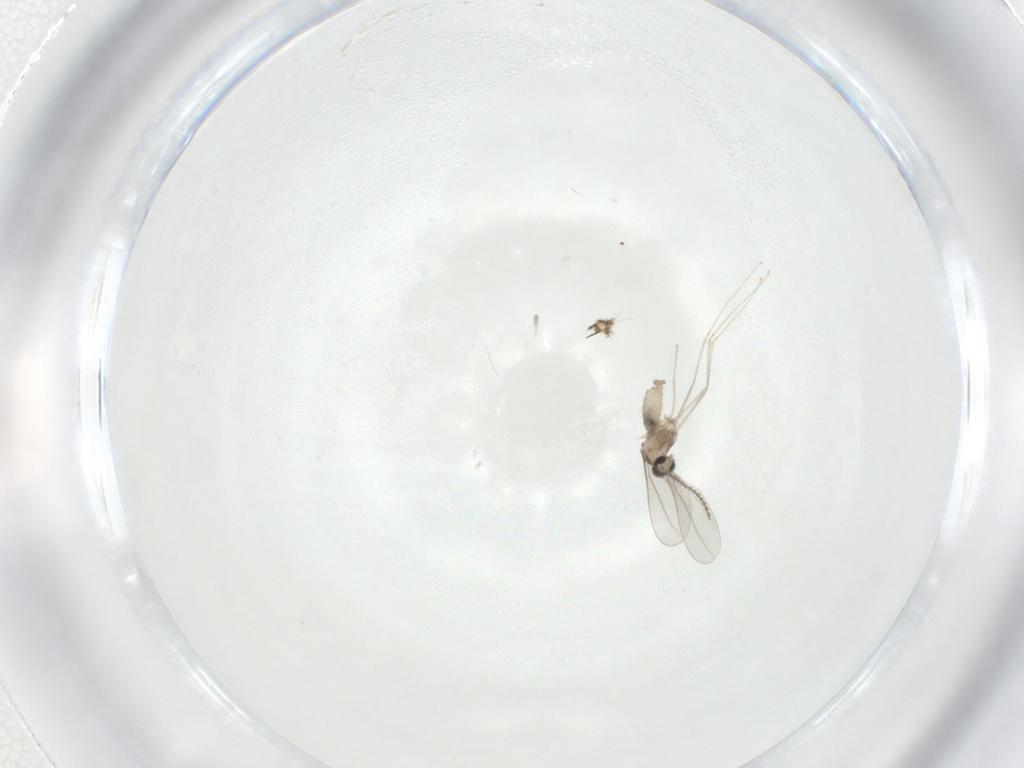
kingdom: Animalia
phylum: Arthropoda
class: Insecta
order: Diptera
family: Cecidomyiidae
